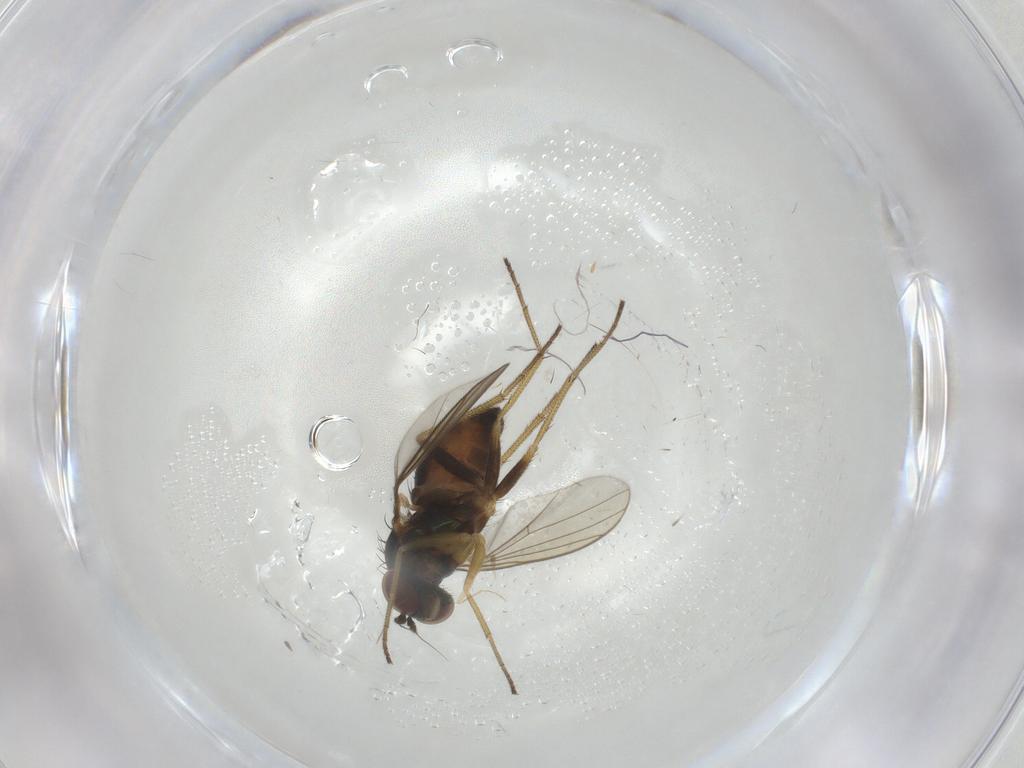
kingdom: Animalia
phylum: Arthropoda
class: Insecta
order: Diptera
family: Dolichopodidae
